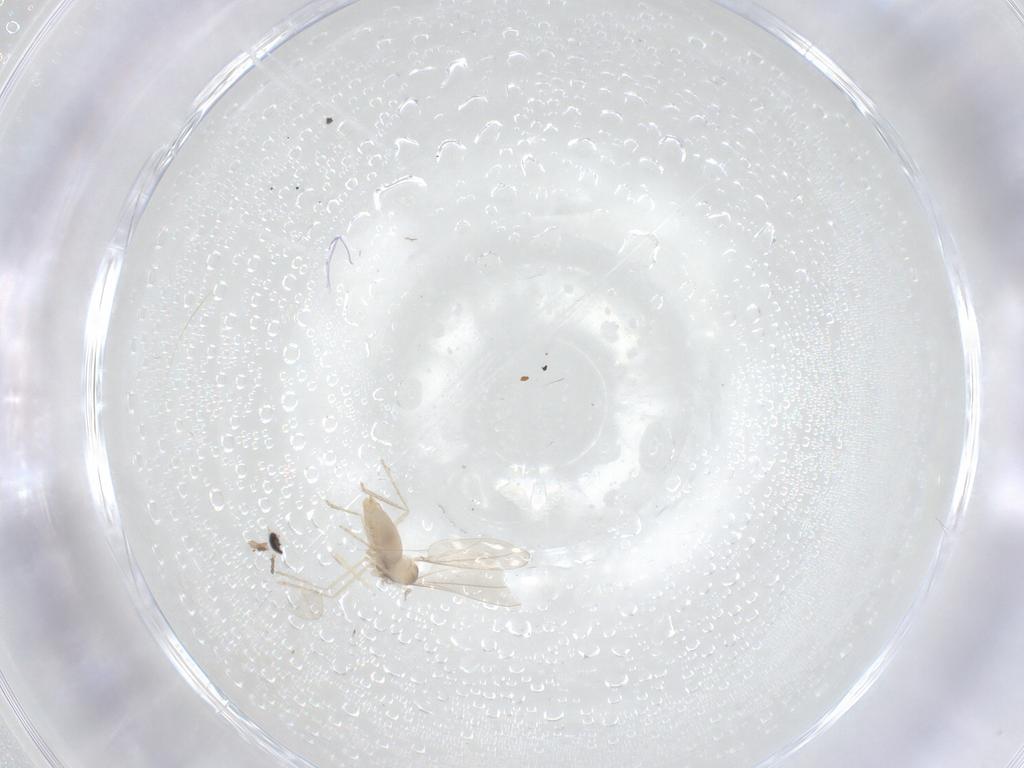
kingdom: Animalia
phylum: Arthropoda
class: Insecta
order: Diptera
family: Cecidomyiidae
